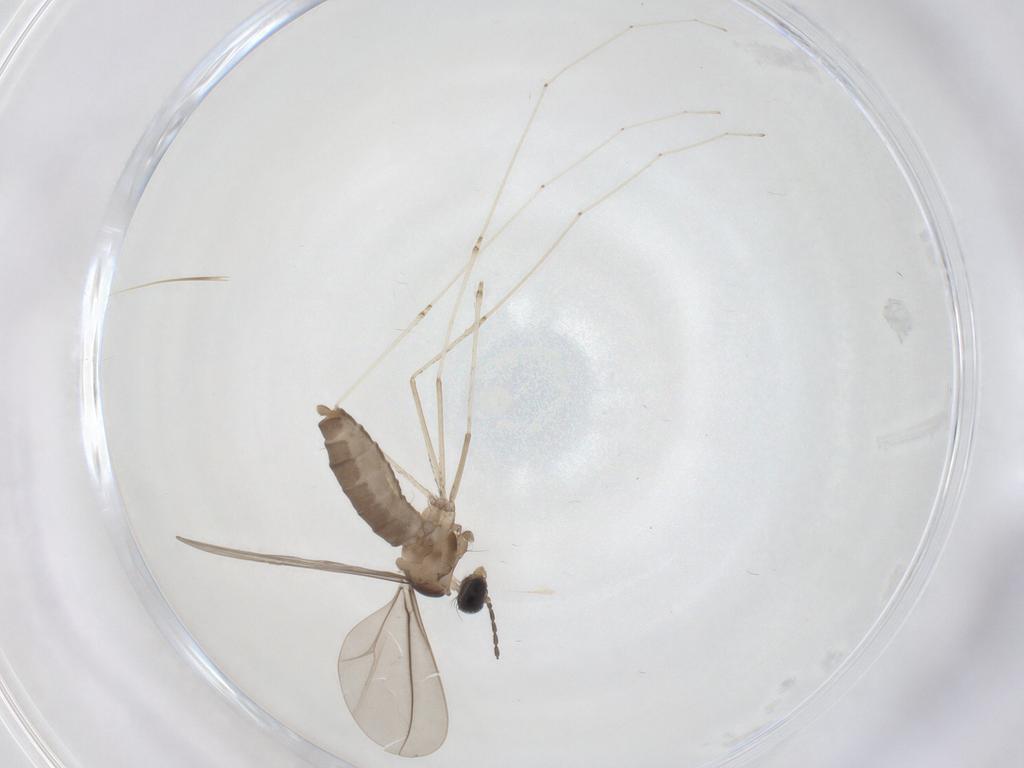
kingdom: Animalia
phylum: Arthropoda
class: Insecta
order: Diptera
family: Cecidomyiidae
